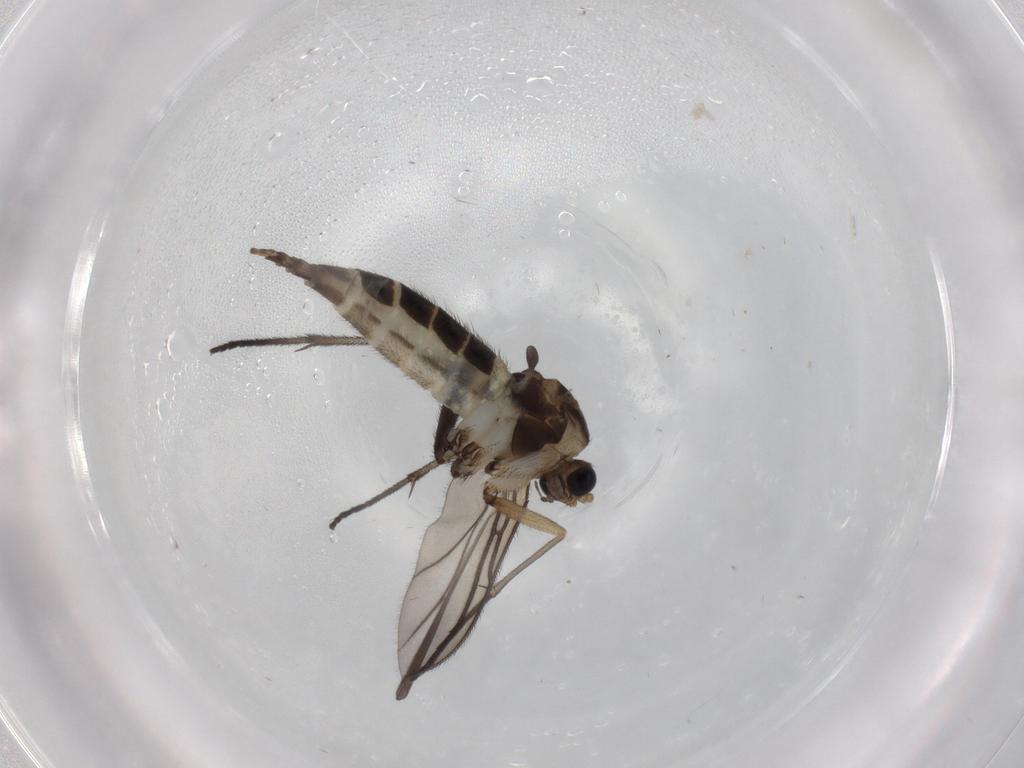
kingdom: Animalia
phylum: Arthropoda
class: Insecta
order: Diptera
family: Sciaridae
